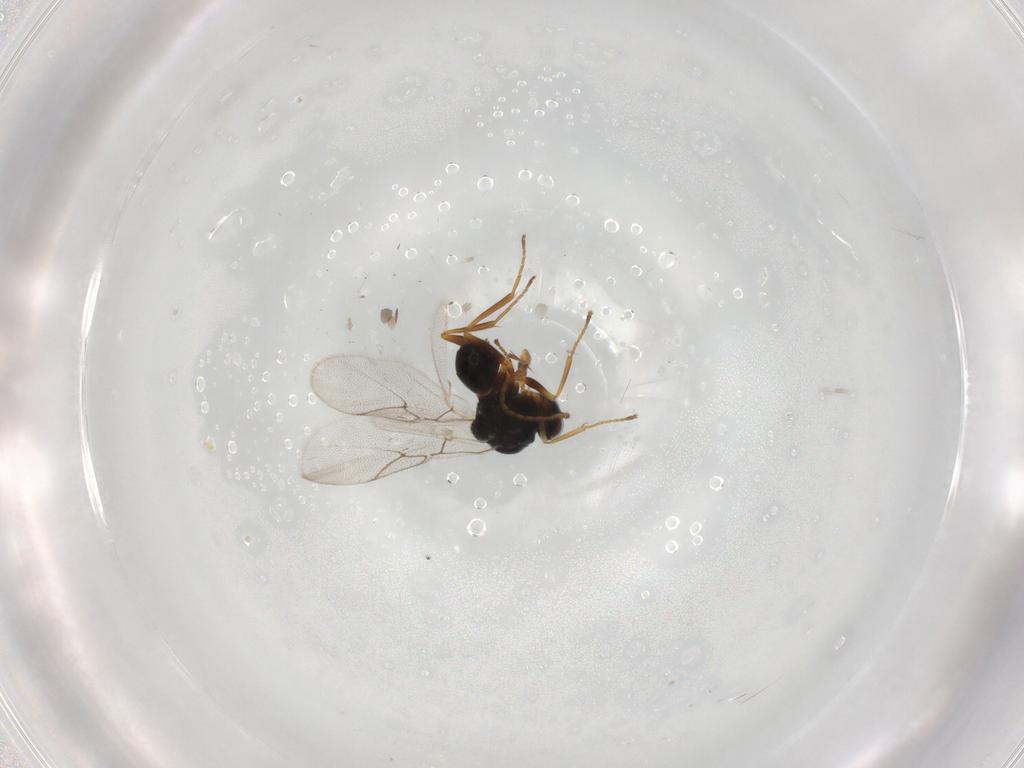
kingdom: Animalia
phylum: Arthropoda
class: Insecta
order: Hymenoptera
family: Figitidae
